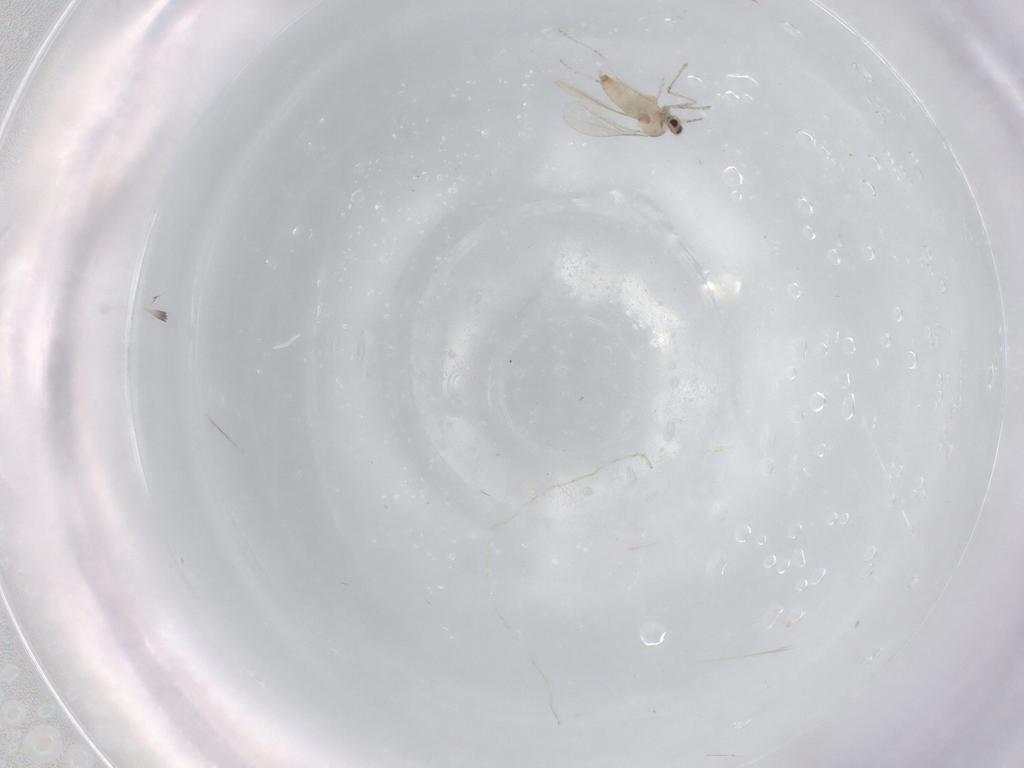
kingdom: Animalia
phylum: Arthropoda
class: Insecta
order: Diptera
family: Cecidomyiidae
